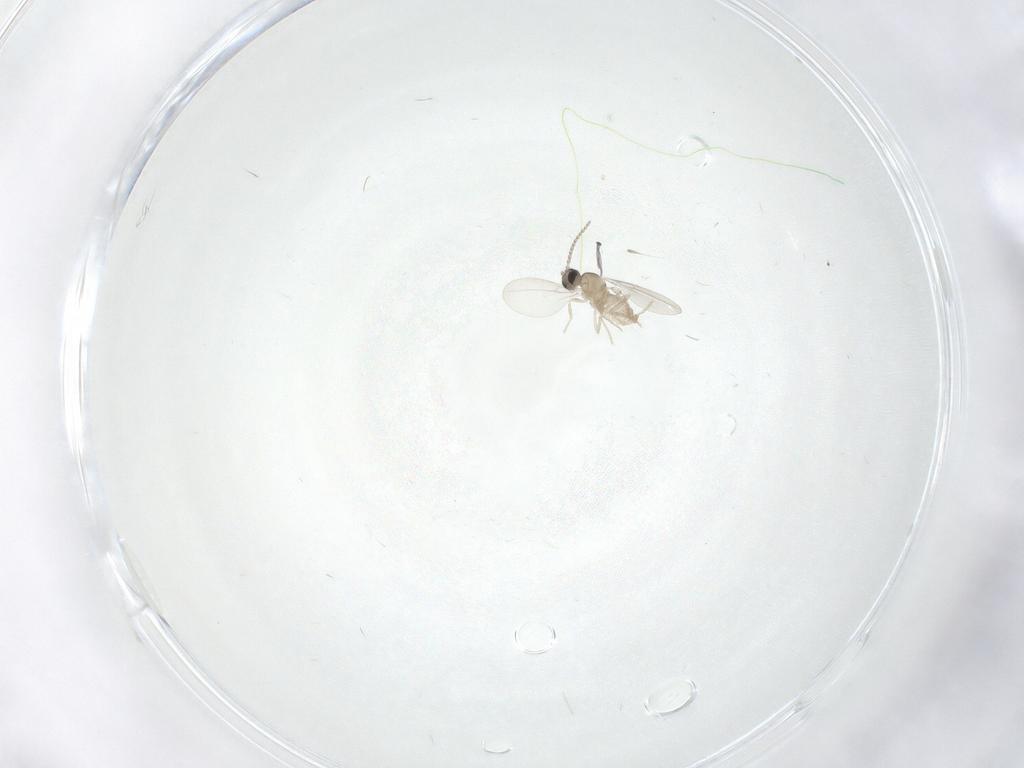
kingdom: Animalia
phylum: Arthropoda
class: Insecta
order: Diptera
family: Cecidomyiidae
